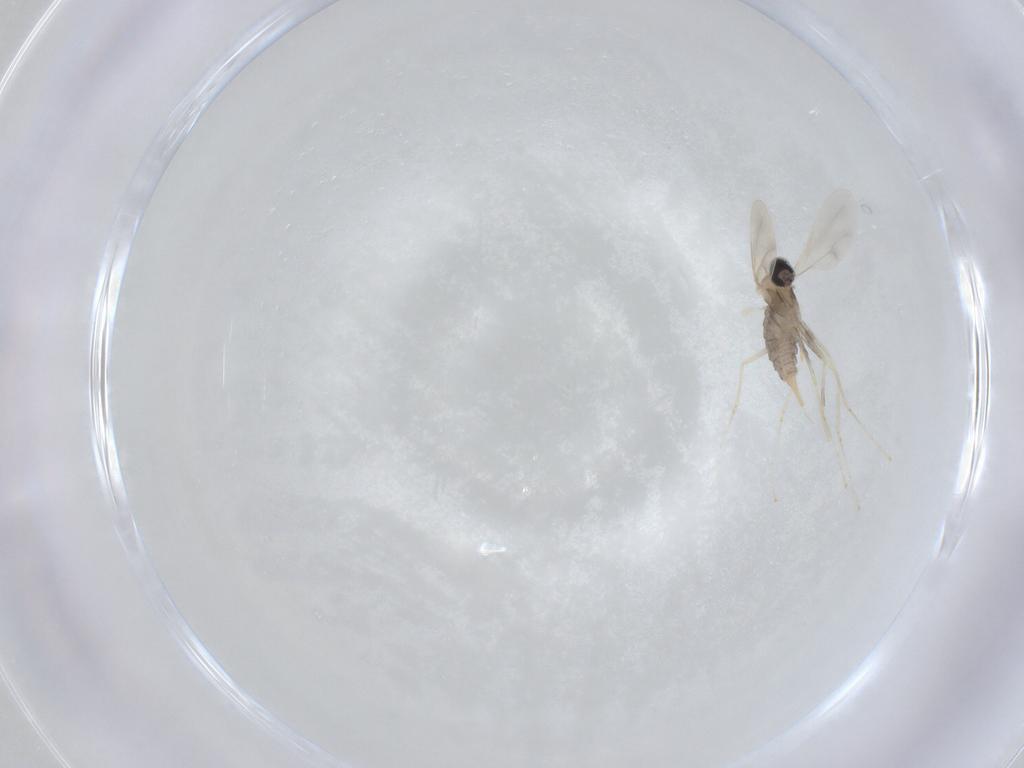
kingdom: Animalia
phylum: Arthropoda
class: Insecta
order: Diptera
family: Cecidomyiidae
